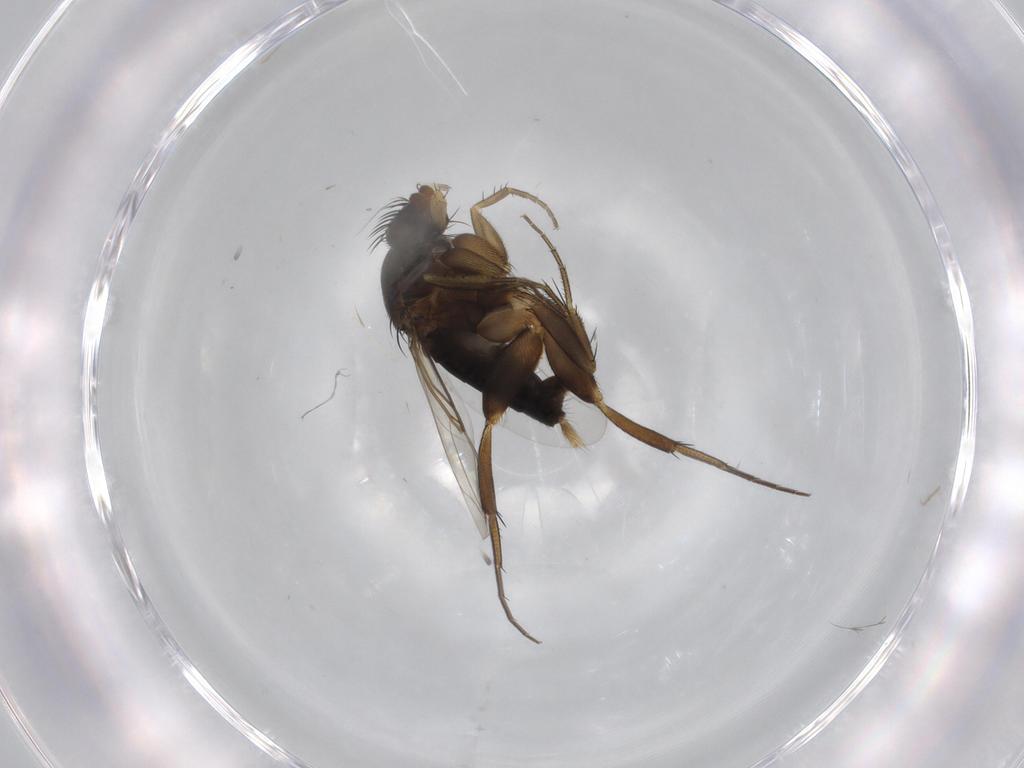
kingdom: Animalia
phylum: Arthropoda
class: Insecta
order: Diptera
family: Phoridae
